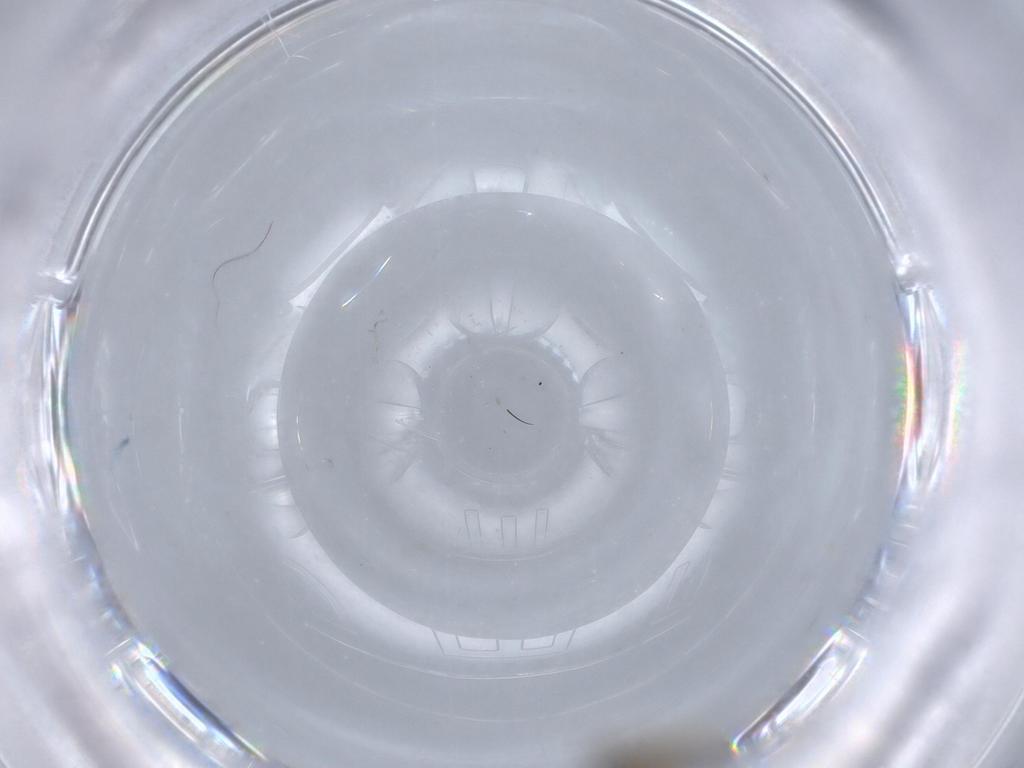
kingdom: Animalia
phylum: Arthropoda
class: Insecta
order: Diptera
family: Cecidomyiidae
